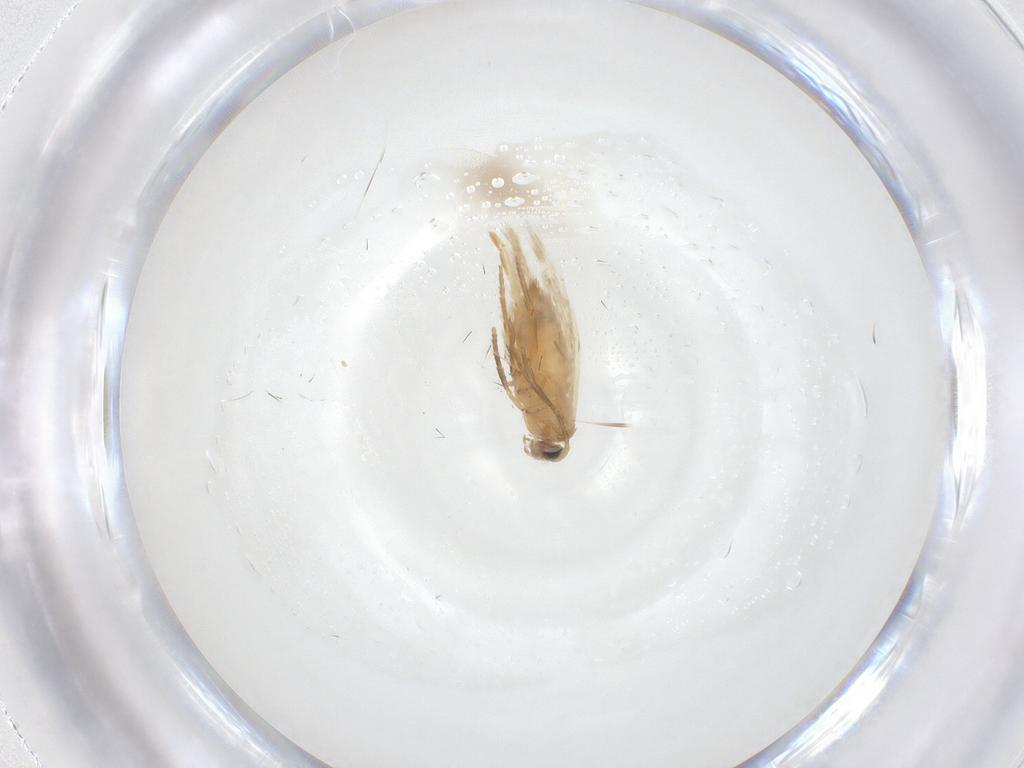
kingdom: Animalia
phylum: Arthropoda
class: Insecta
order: Lepidoptera
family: Nepticulidae
